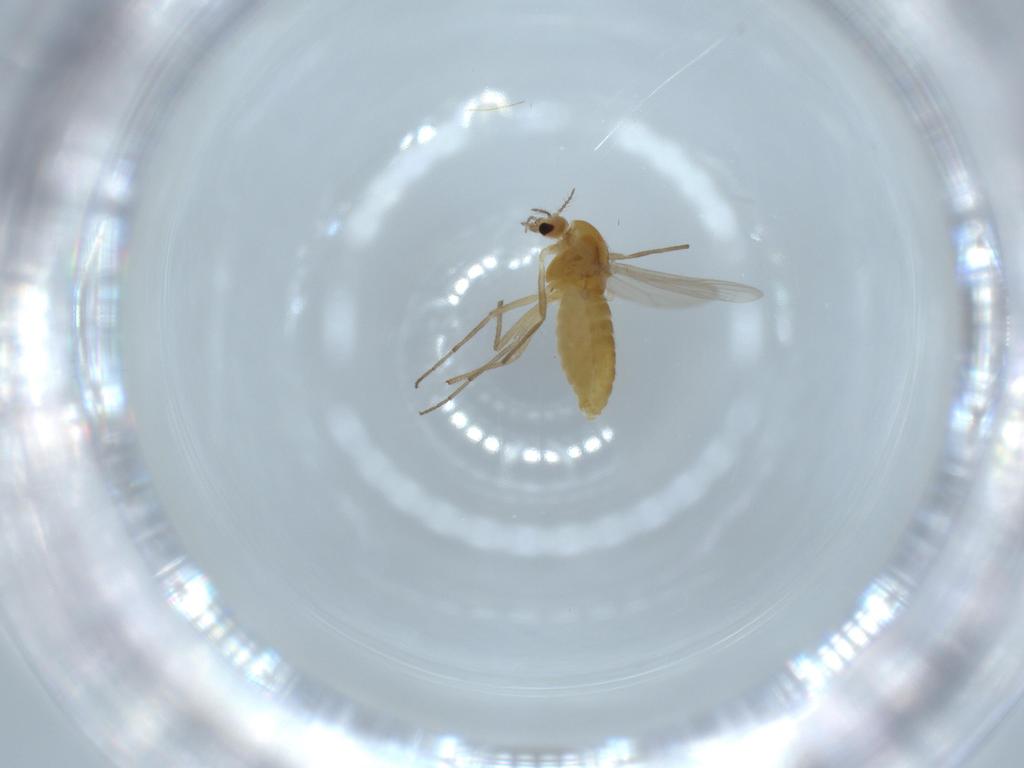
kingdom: Animalia
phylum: Arthropoda
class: Insecta
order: Diptera
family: Chironomidae
